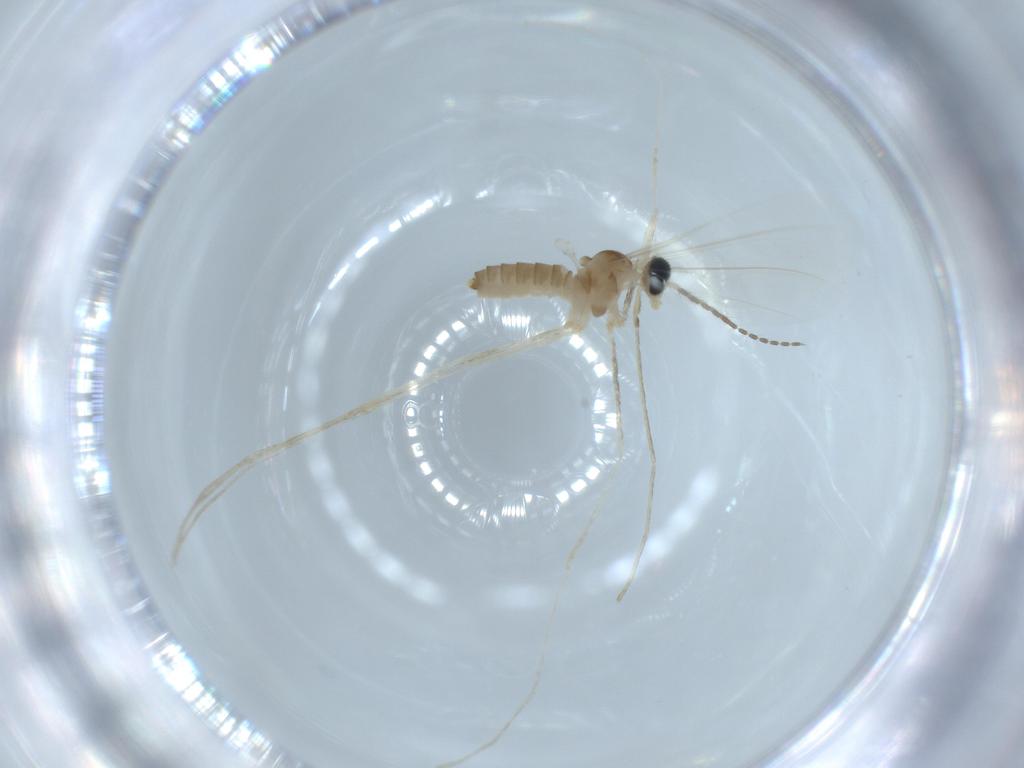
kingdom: Animalia
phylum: Arthropoda
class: Insecta
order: Diptera
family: Cecidomyiidae
